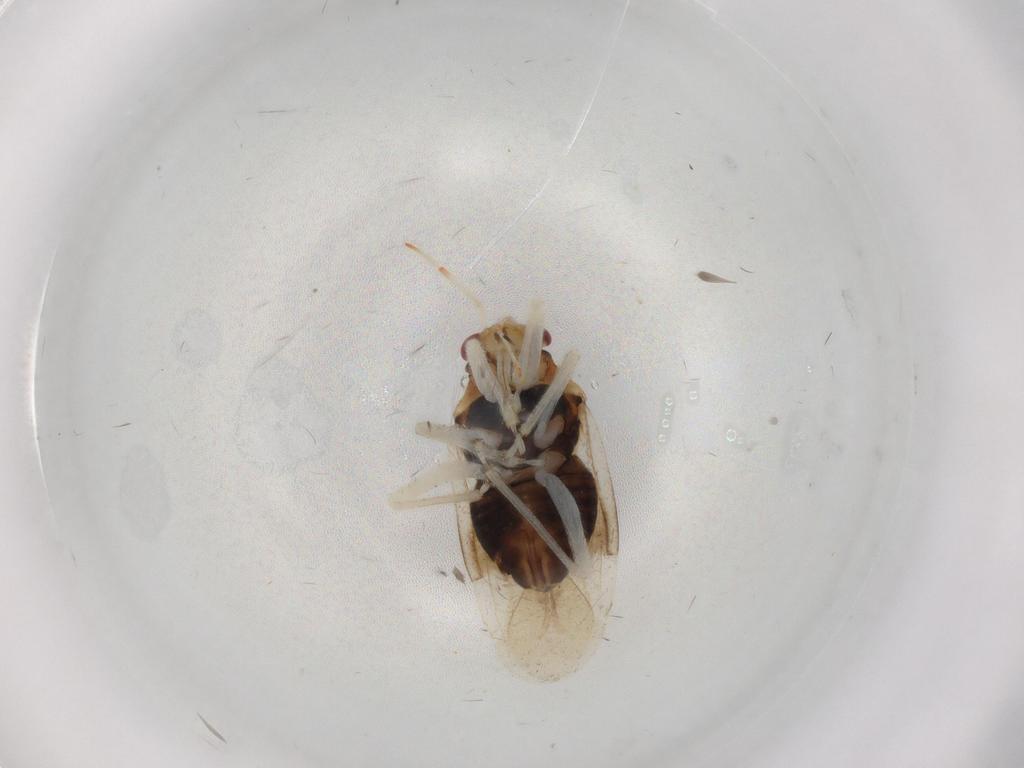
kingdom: Animalia
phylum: Arthropoda
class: Insecta
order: Hemiptera
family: Miridae
